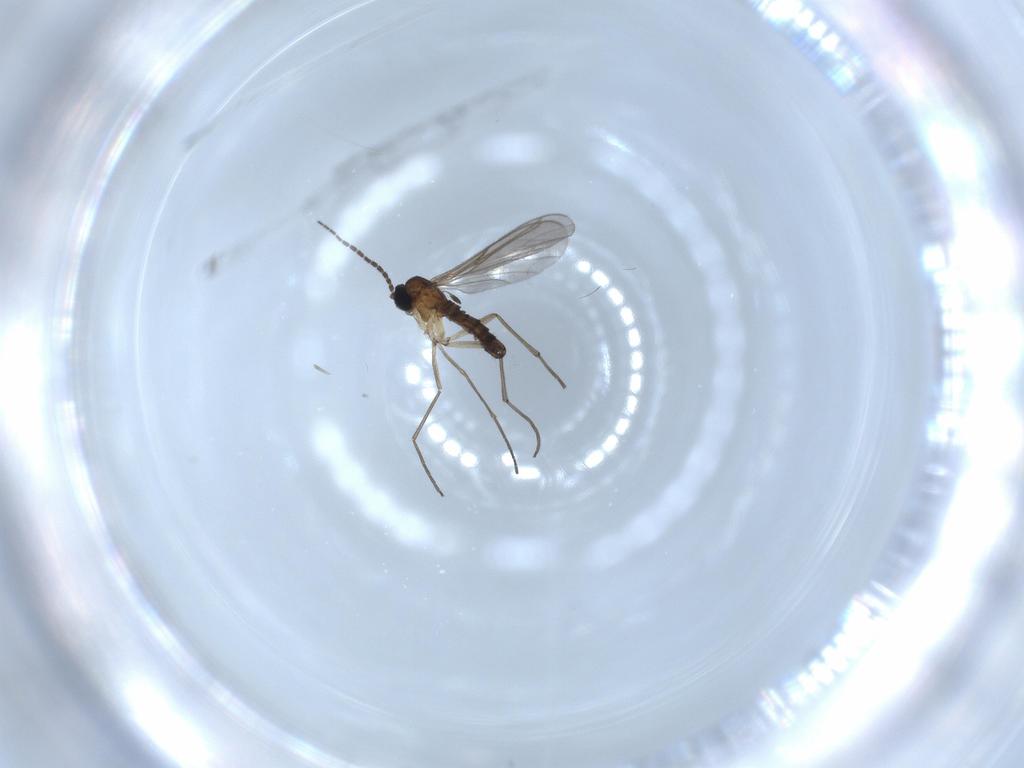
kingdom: Animalia
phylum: Arthropoda
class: Insecta
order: Diptera
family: Sciaridae
